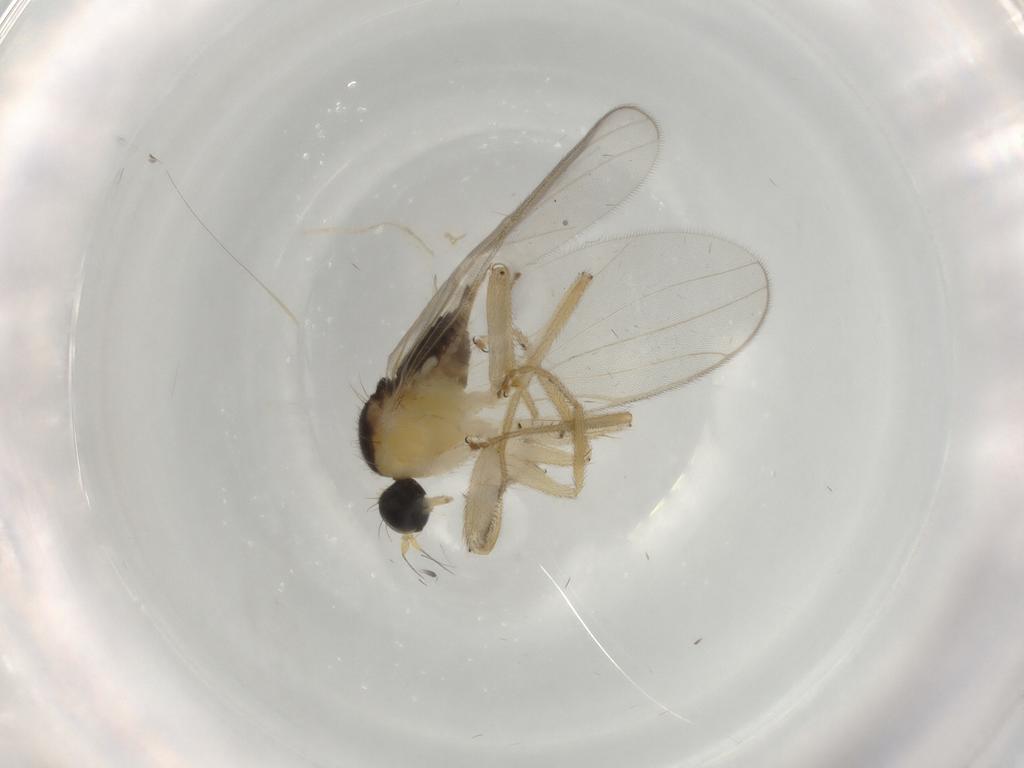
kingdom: Animalia
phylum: Arthropoda
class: Insecta
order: Diptera
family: Hybotidae
